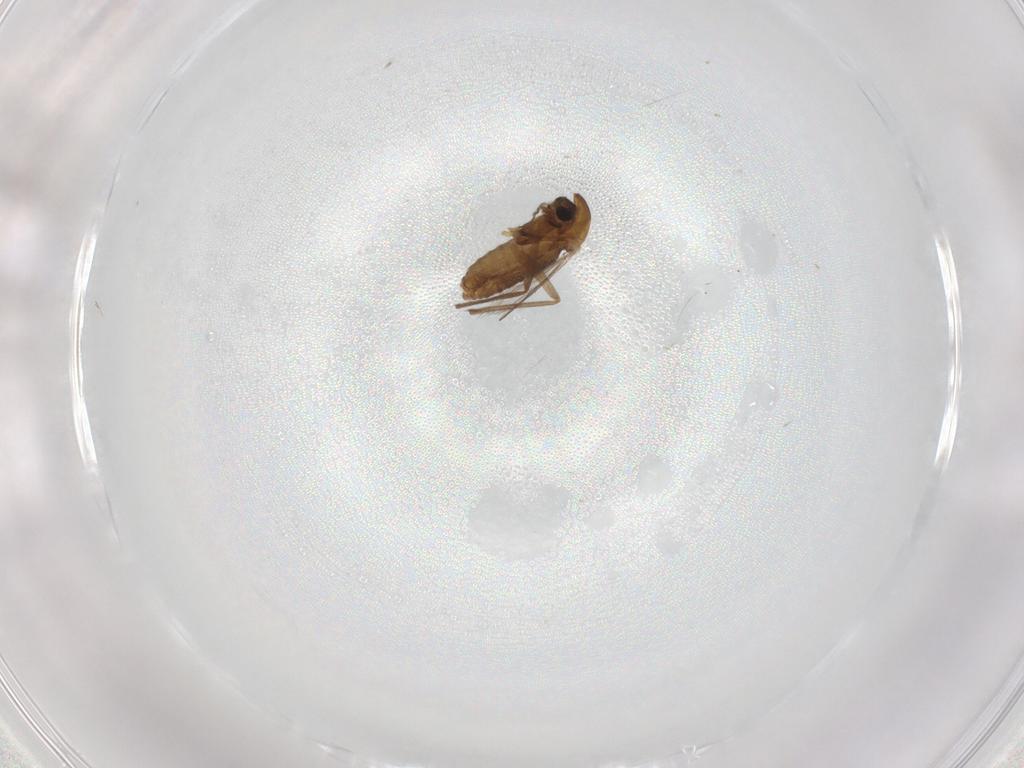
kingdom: Animalia
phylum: Arthropoda
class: Insecta
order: Diptera
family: Chironomidae
